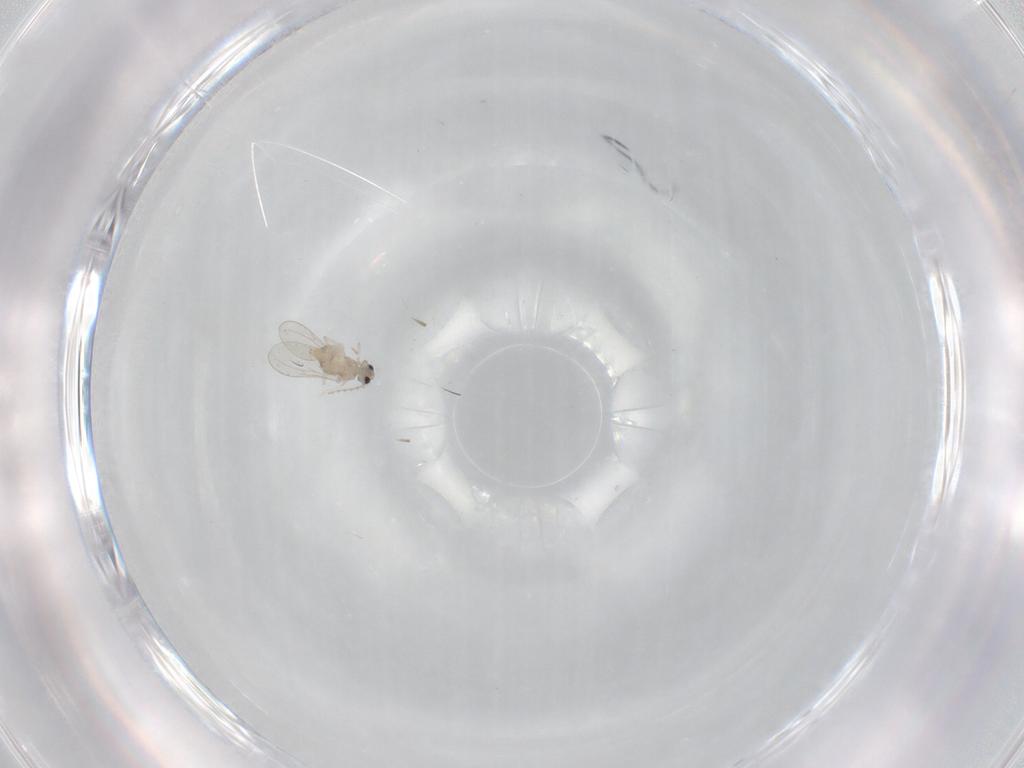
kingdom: Animalia
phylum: Arthropoda
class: Insecta
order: Diptera
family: Cecidomyiidae
